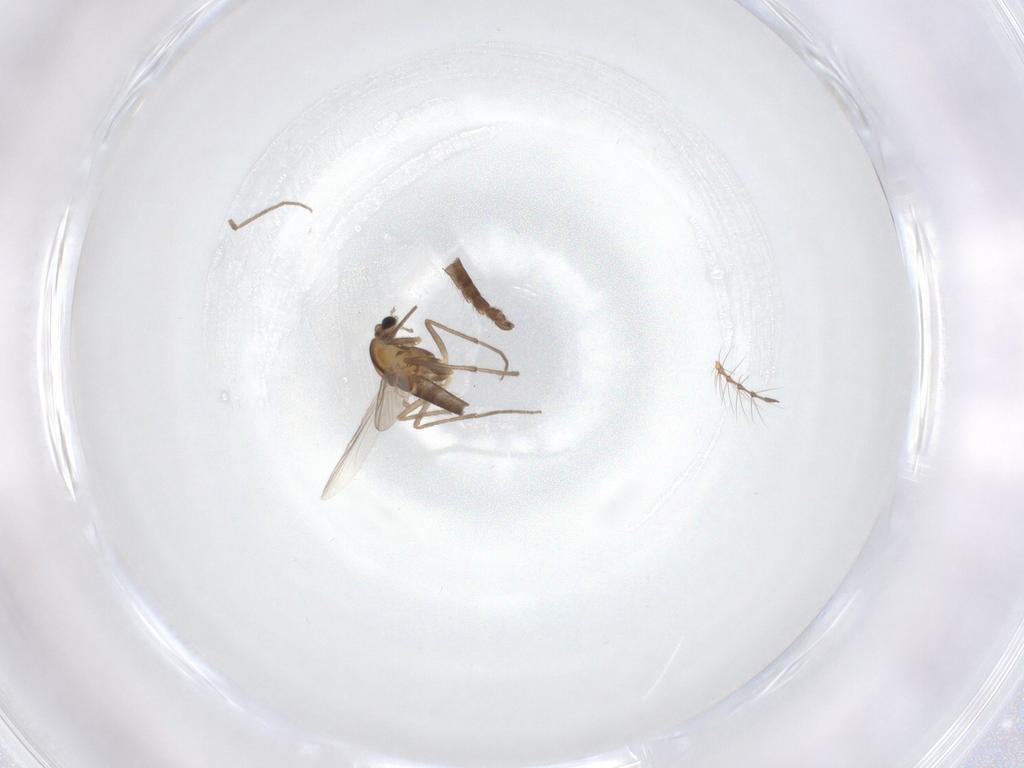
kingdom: Animalia
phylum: Arthropoda
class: Insecta
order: Diptera
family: Chironomidae
